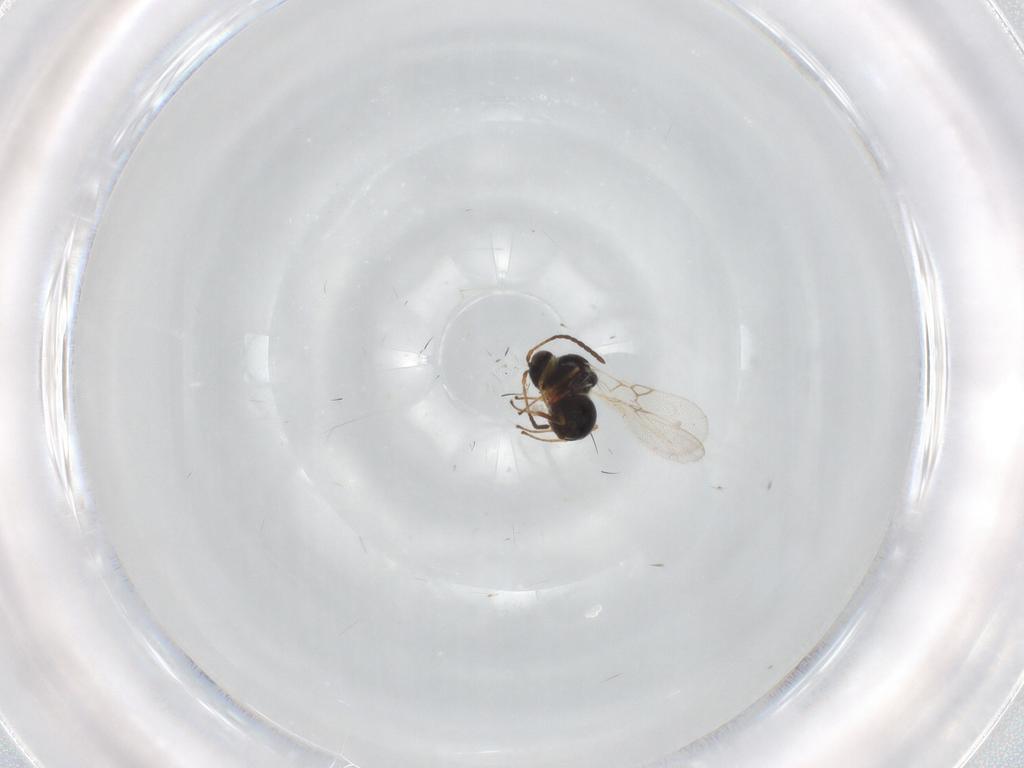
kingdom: Animalia
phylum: Arthropoda
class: Insecta
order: Hymenoptera
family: Figitidae
